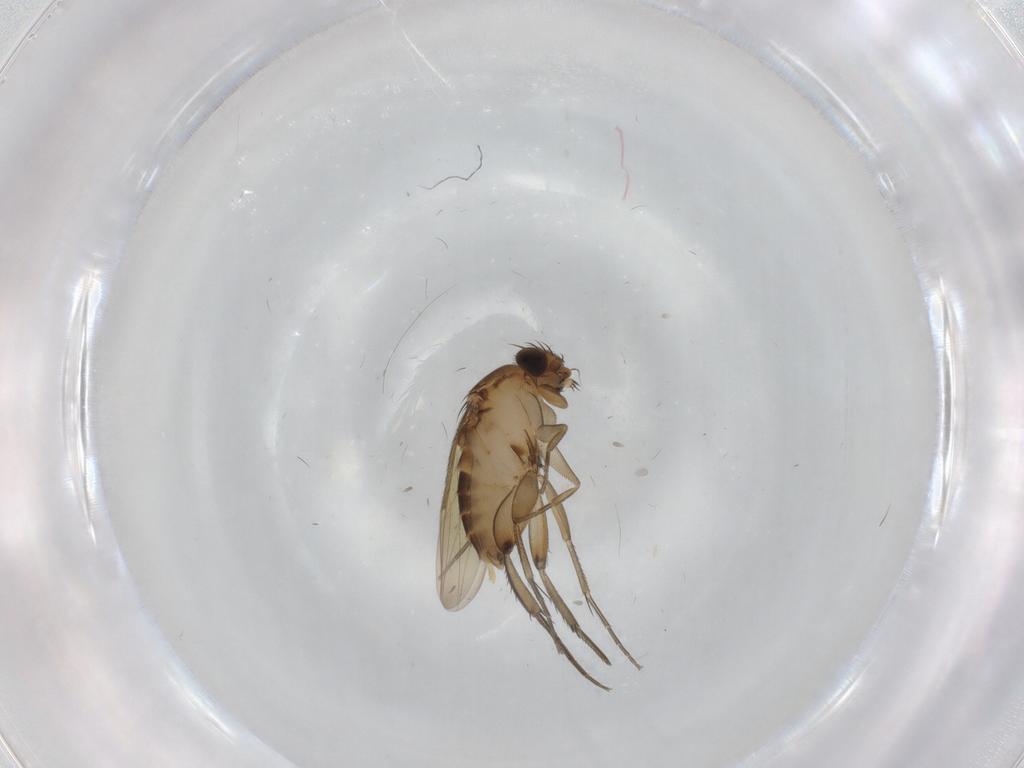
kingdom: Animalia
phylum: Arthropoda
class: Insecta
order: Diptera
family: Phoridae
